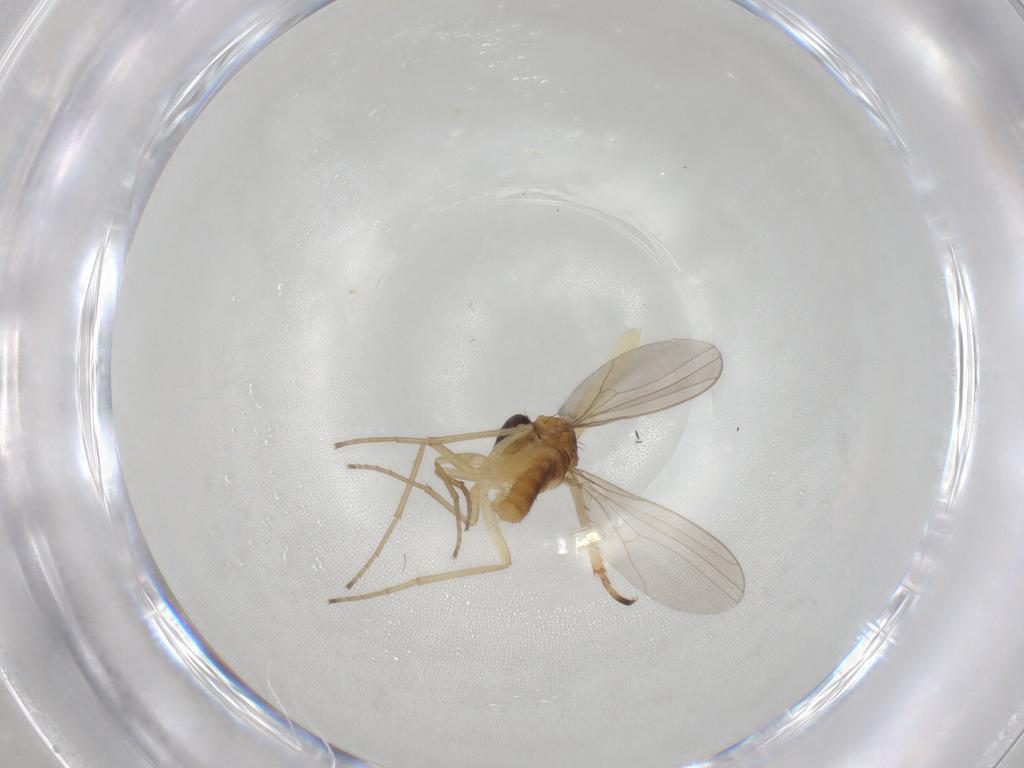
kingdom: Animalia
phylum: Arthropoda
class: Insecta
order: Diptera
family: Dolichopodidae
